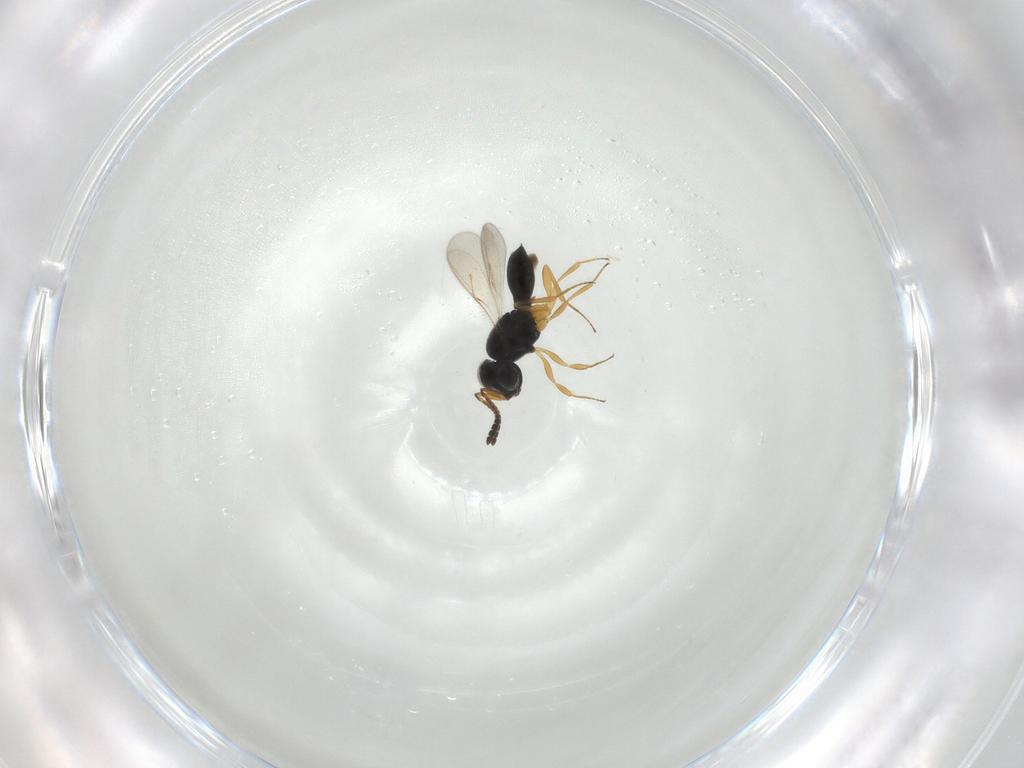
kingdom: Animalia
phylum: Arthropoda
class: Insecta
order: Hymenoptera
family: Scelionidae
